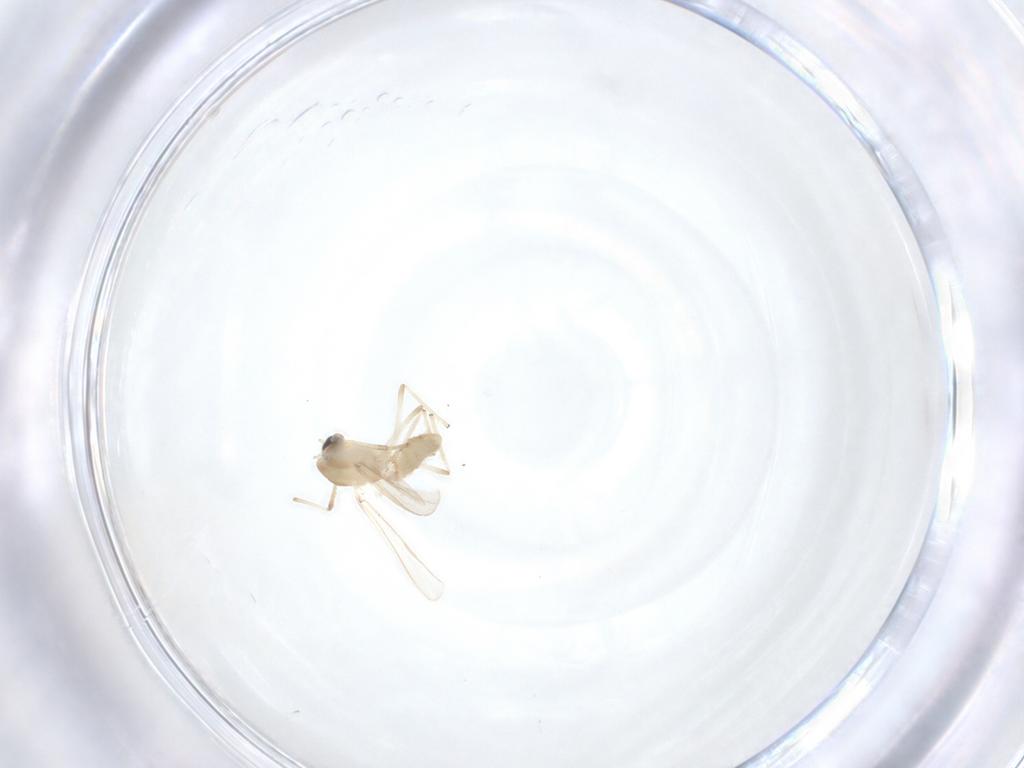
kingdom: Animalia
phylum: Arthropoda
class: Insecta
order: Diptera
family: Chironomidae
